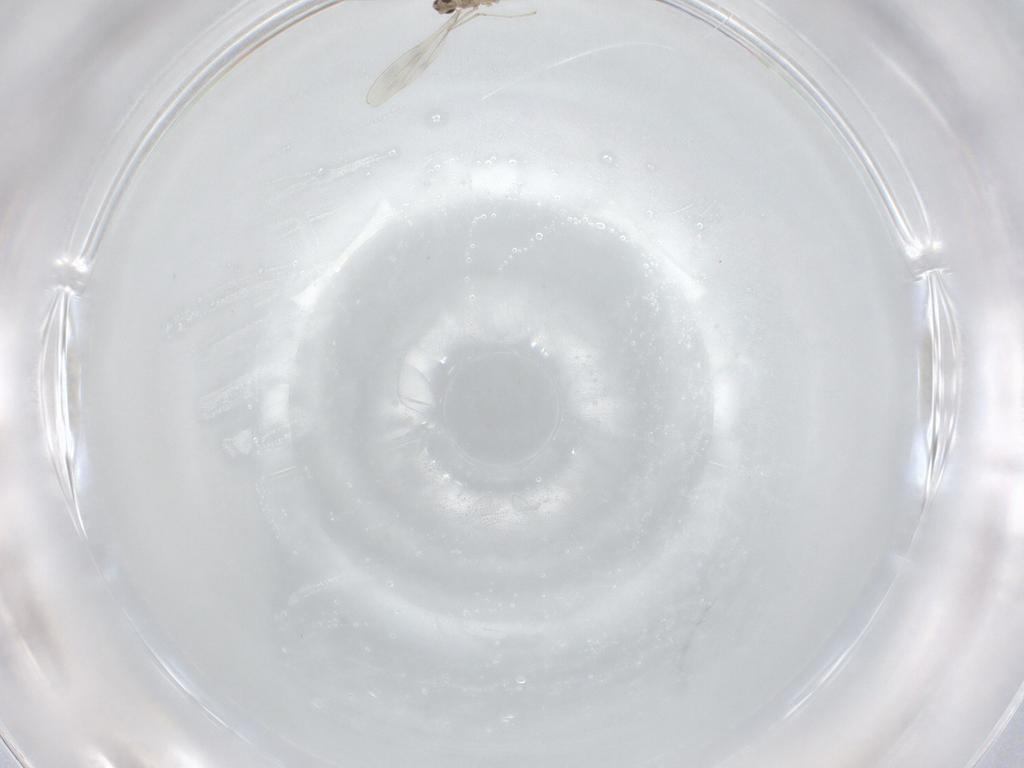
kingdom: Animalia
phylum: Arthropoda
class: Insecta
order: Diptera
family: Cecidomyiidae
